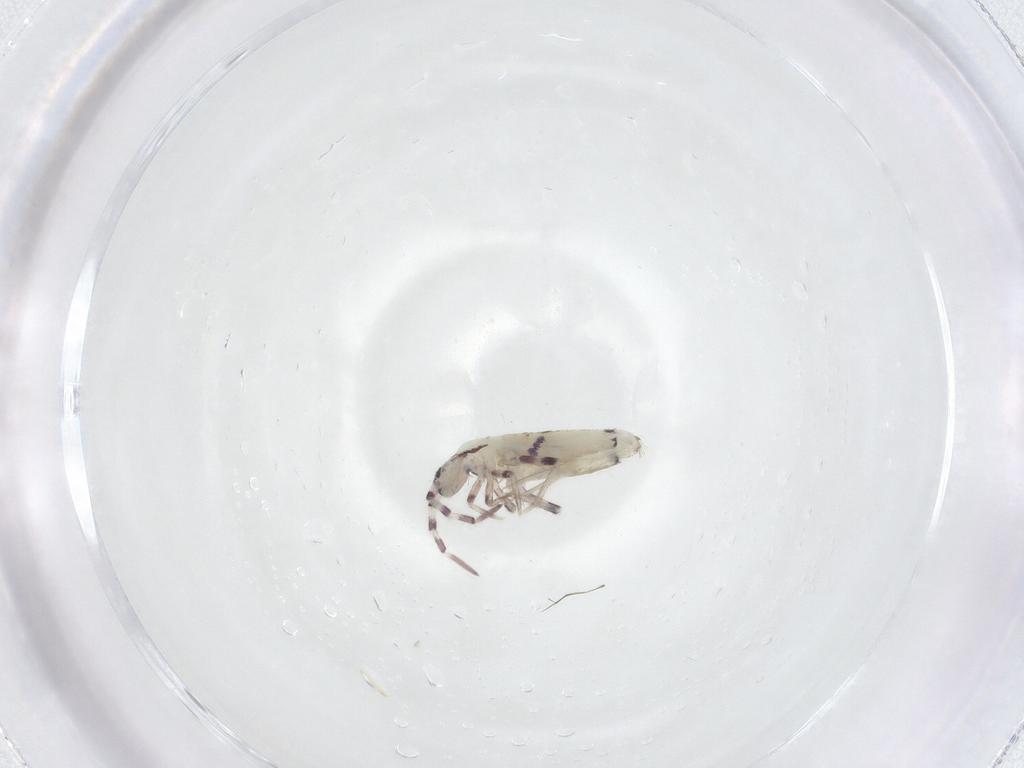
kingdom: Animalia
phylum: Arthropoda
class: Collembola
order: Entomobryomorpha
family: Entomobryidae
